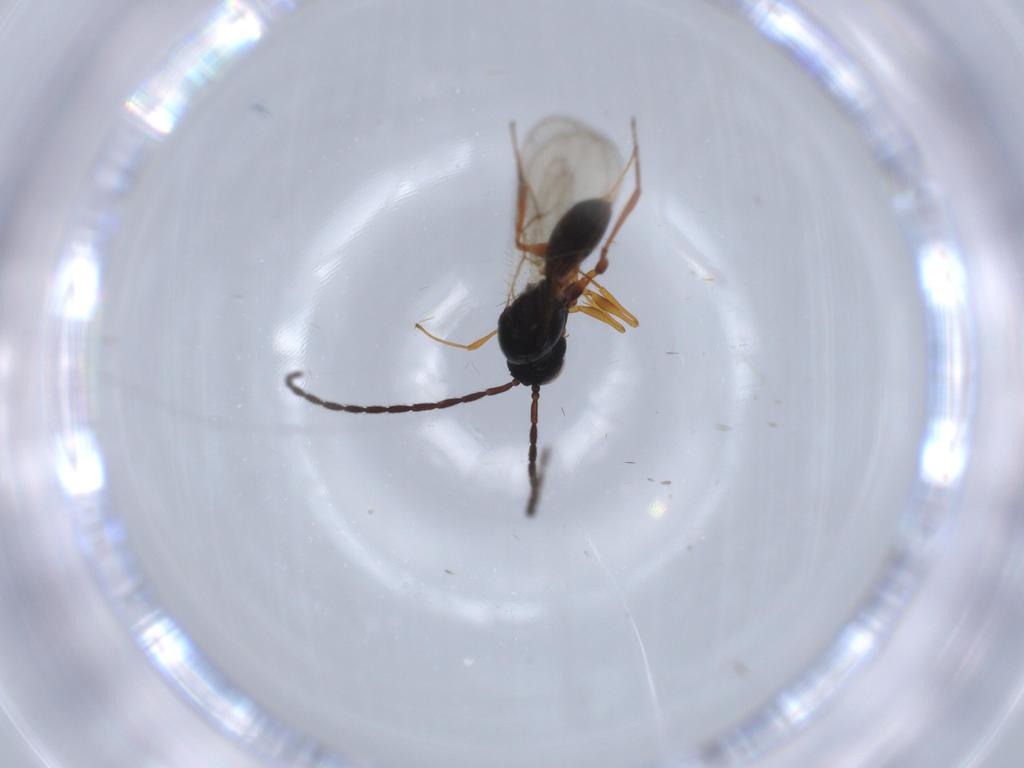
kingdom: Animalia
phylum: Arthropoda
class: Insecta
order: Hymenoptera
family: Figitidae
